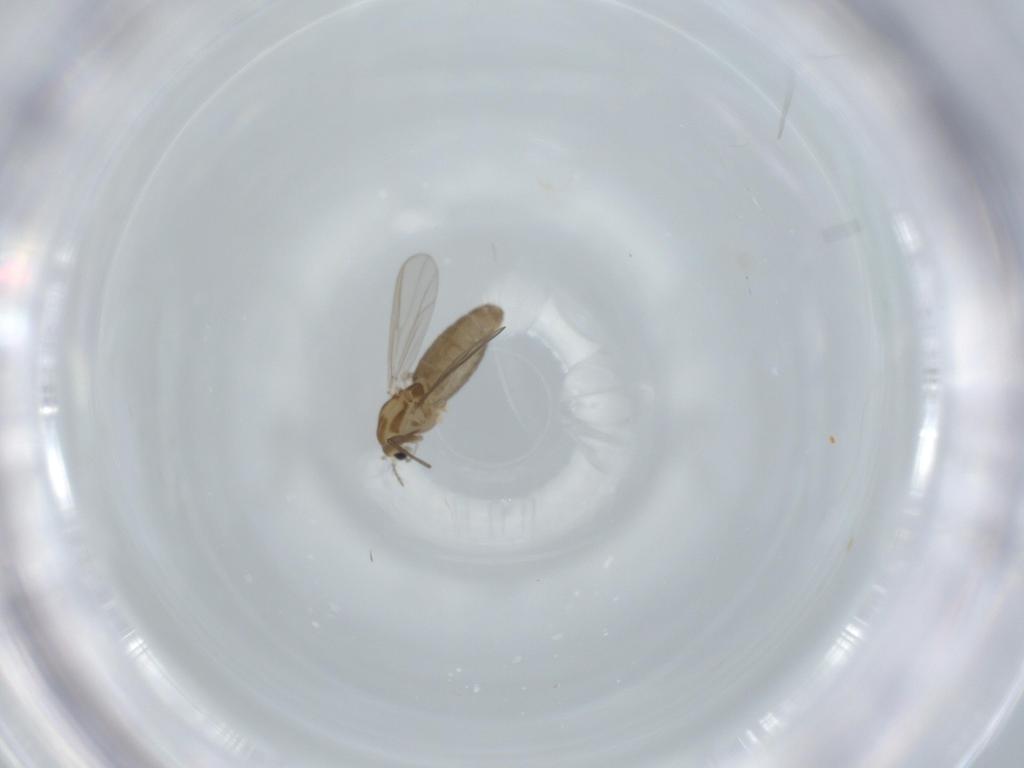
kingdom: Animalia
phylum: Arthropoda
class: Insecta
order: Diptera
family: Chironomidae
